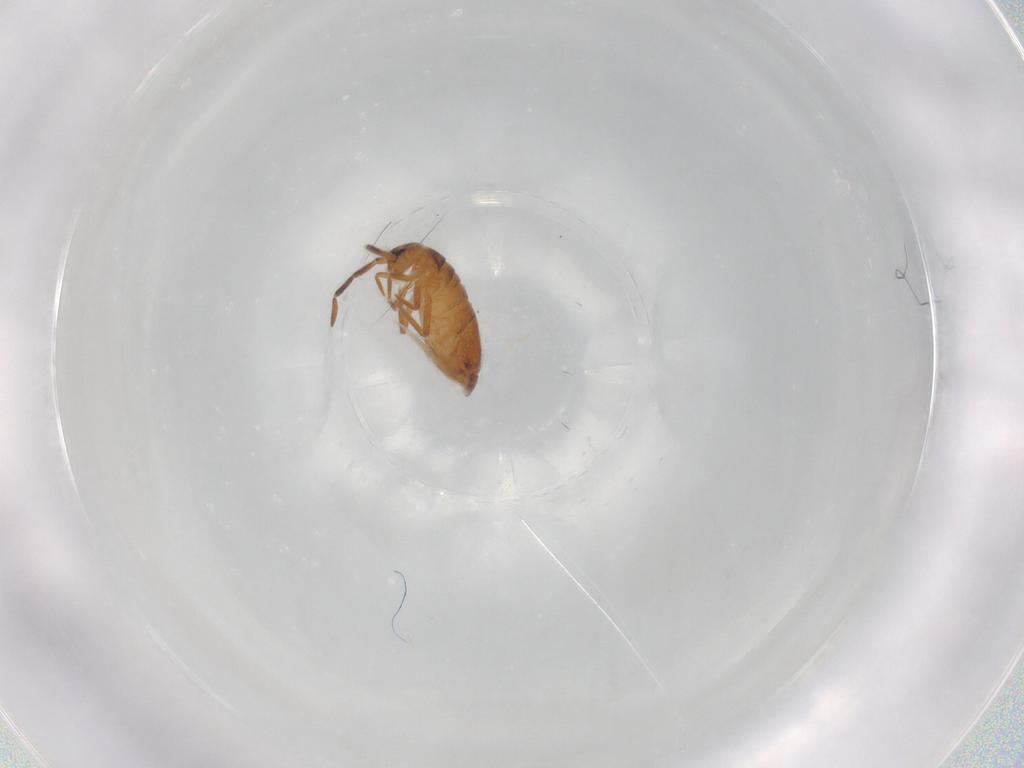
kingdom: Animalia
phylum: Arthropoda
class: Collembola
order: Entomobryomorpha
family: Entomobryidae
